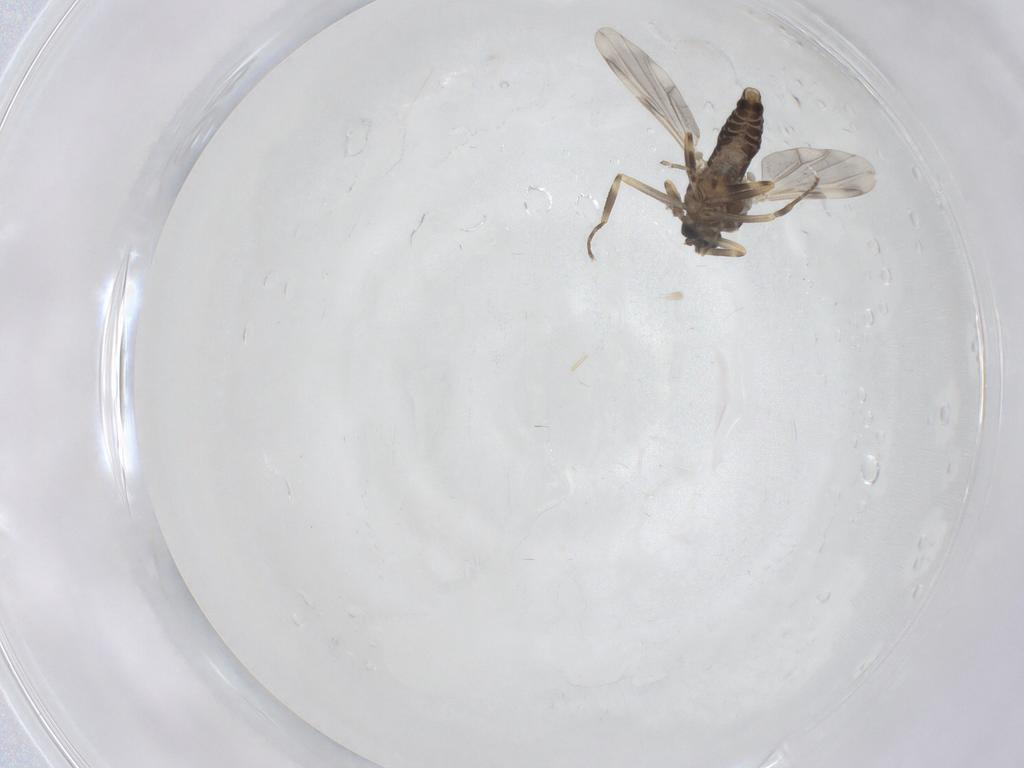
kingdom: Animalia
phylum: Arthropoda
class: Insecta
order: Diptera
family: Ceratopogonidae
